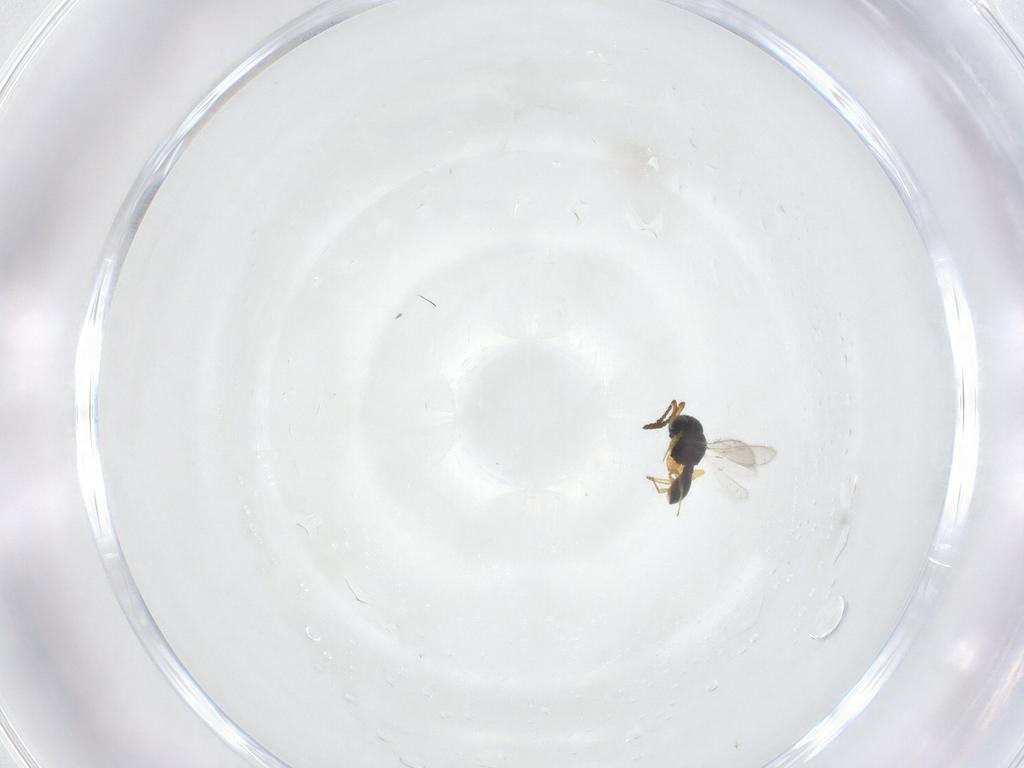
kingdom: Animalia
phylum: Arthropoda
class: Insecta
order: Hymenoptera
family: Scelionidae
